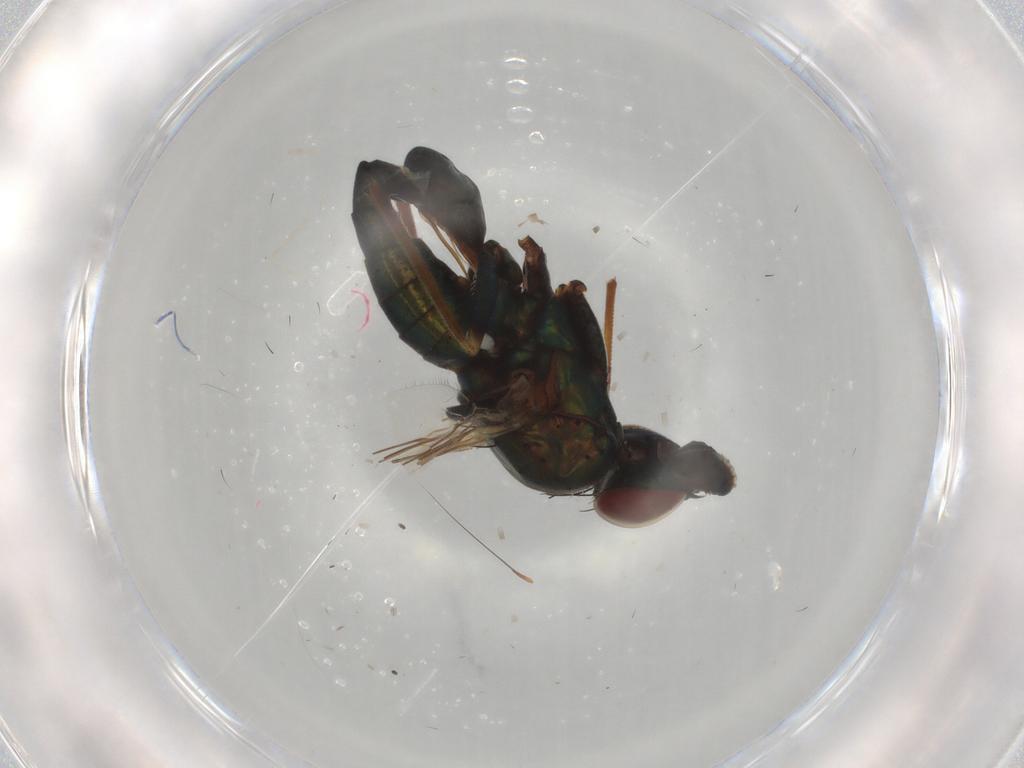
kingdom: Animalia
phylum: Arthropoda
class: Insecta
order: Diptera
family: Dolichopodidae
